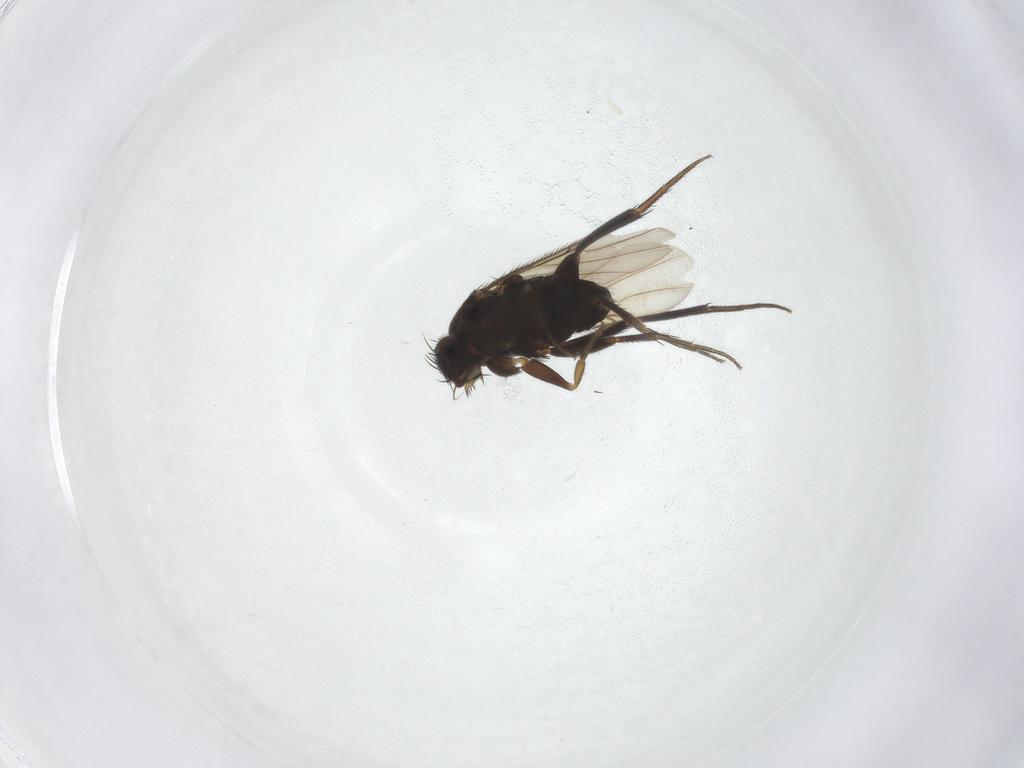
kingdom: Animalia
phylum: Arthropoda
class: Insecta
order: Diptera
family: Phoridae
